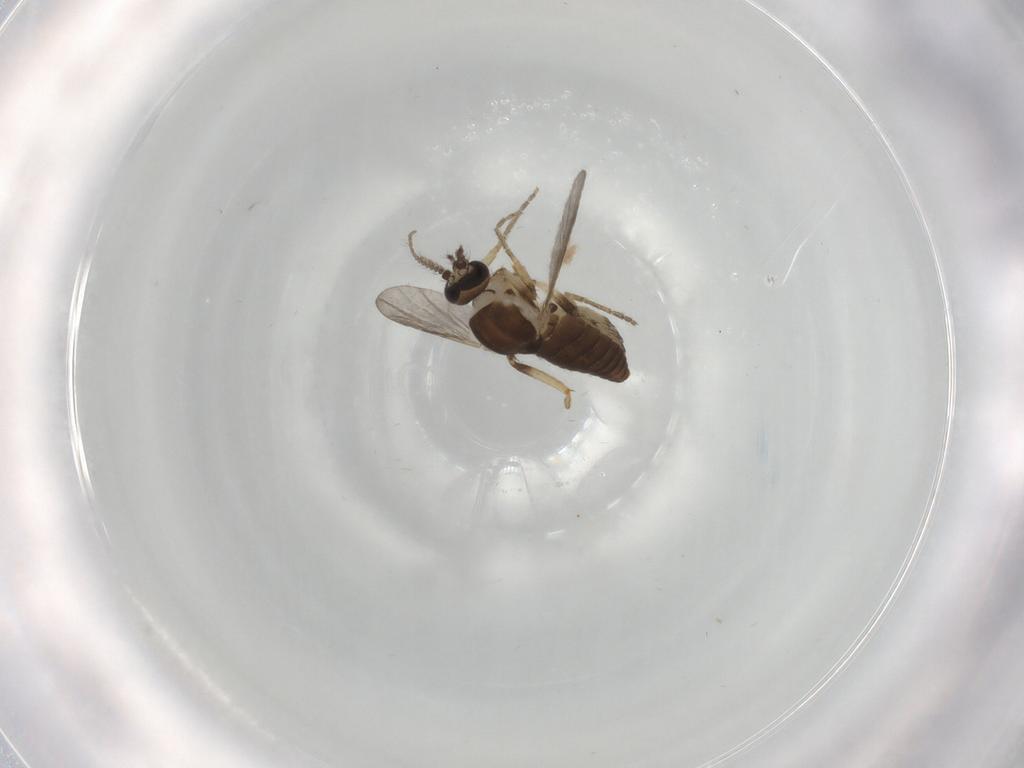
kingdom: Animalia
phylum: Arthropoda
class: Insecta
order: Diptera
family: Ceratopogonidae
